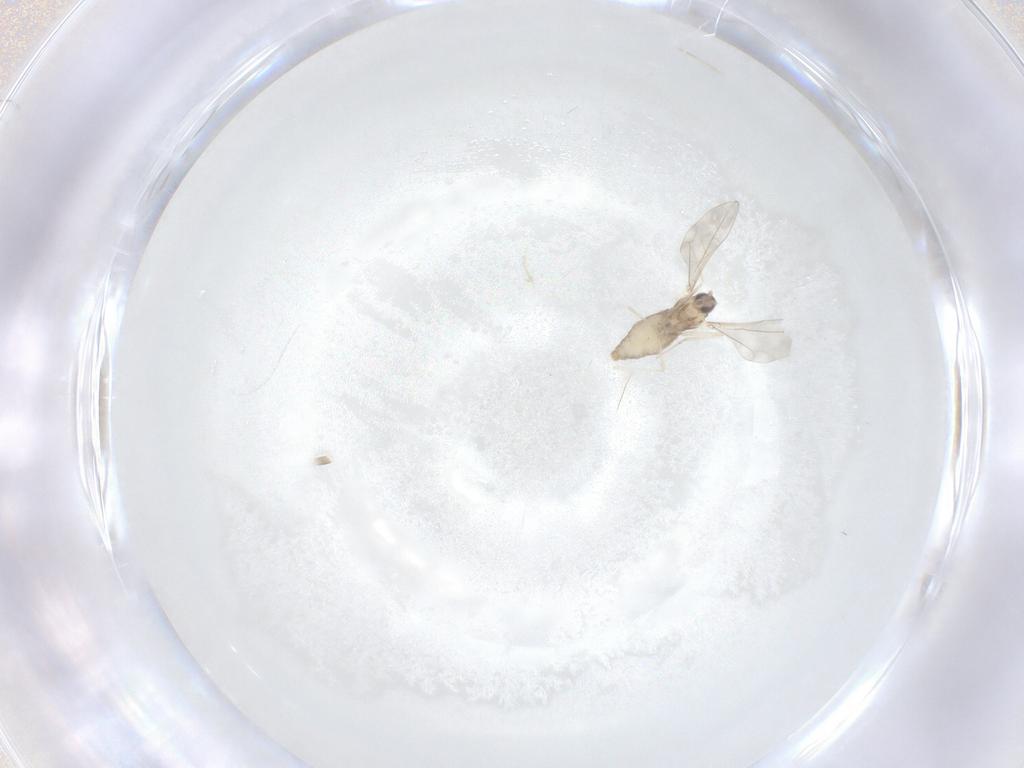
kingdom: Animalia
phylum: Arthropoda
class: Insecta
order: Diptera
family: Cecidomyiidae
